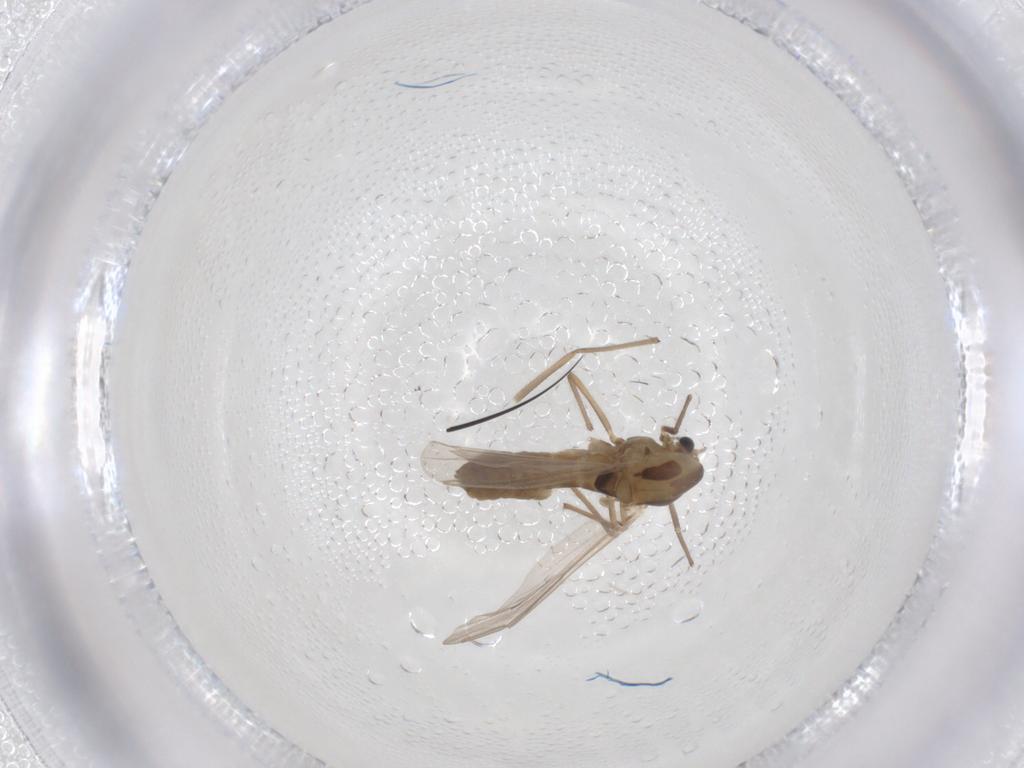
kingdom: Animalia
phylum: Arthropoda
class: Insecta
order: Diptera
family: Chironomidae
